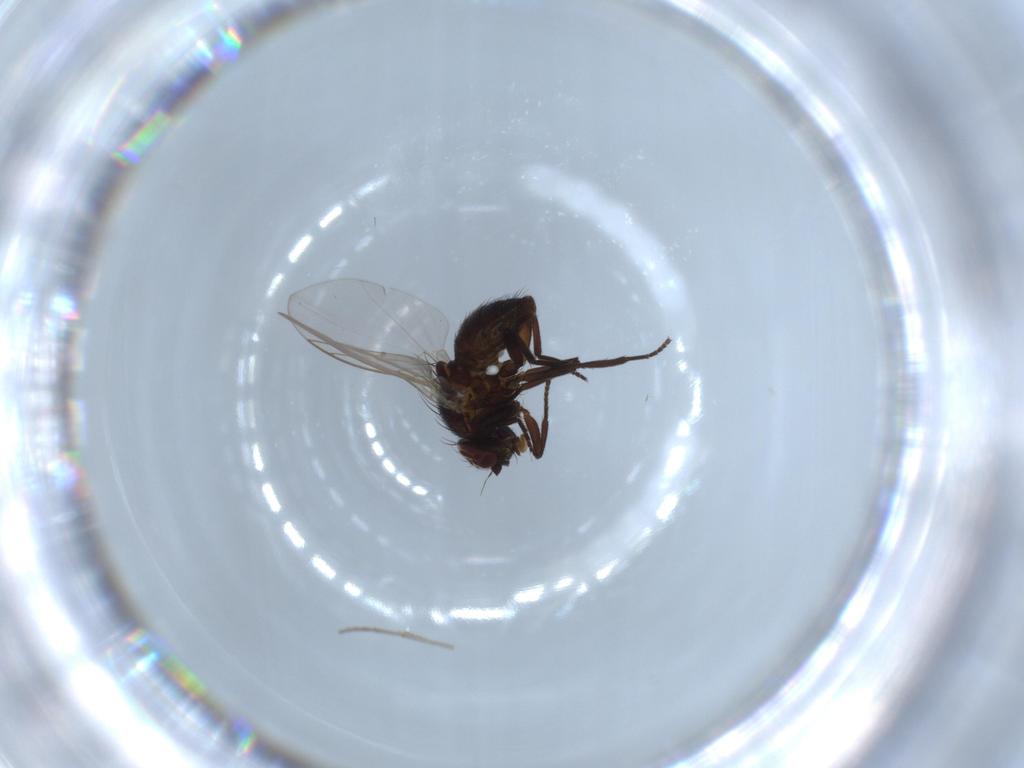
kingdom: Animalia
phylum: Arthropoda
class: Insecta
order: Diptera
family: Sciaridae
